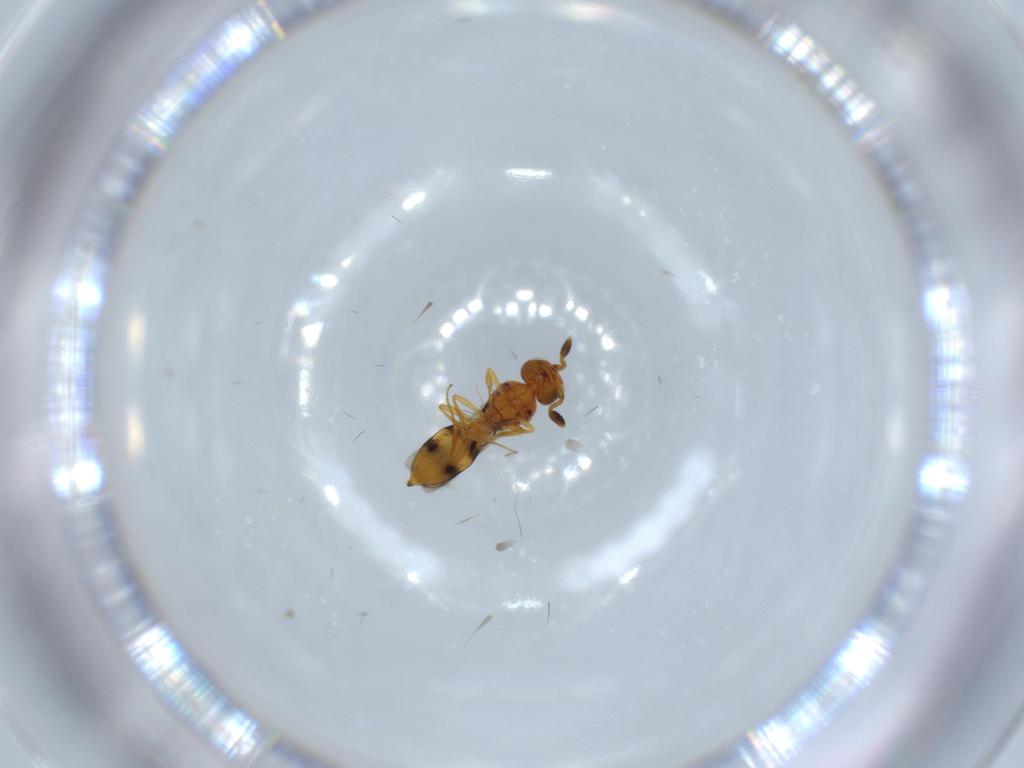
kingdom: Animalia
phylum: Arthropoda
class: Insecta
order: Hymenoptera
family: Scelionidae
